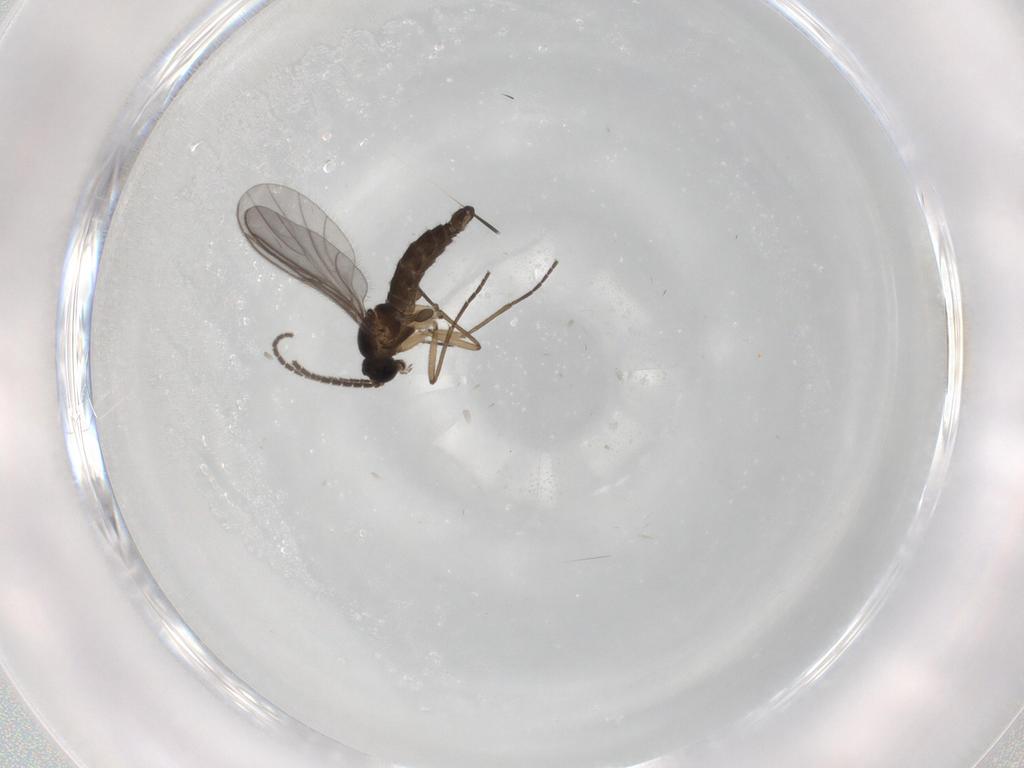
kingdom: Animalia
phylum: Arthropoda
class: Insecta
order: Diptera
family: Sciaridae
